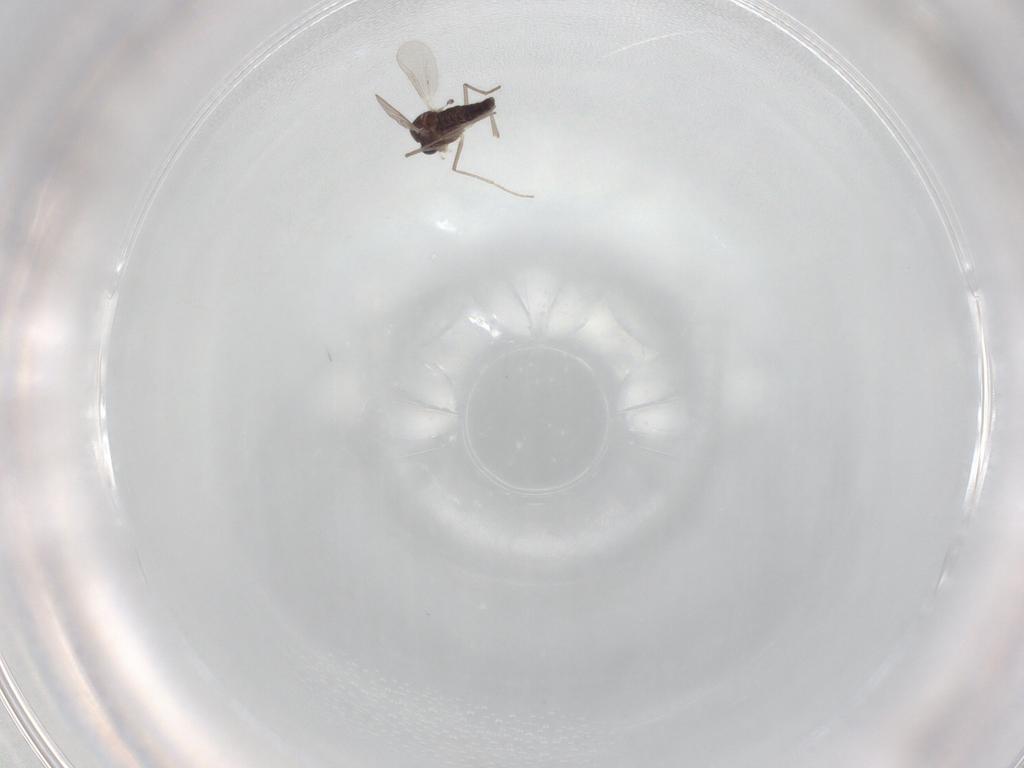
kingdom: Animalia
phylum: Arthropoda
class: Insecta
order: Diptera
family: Chironomidae
